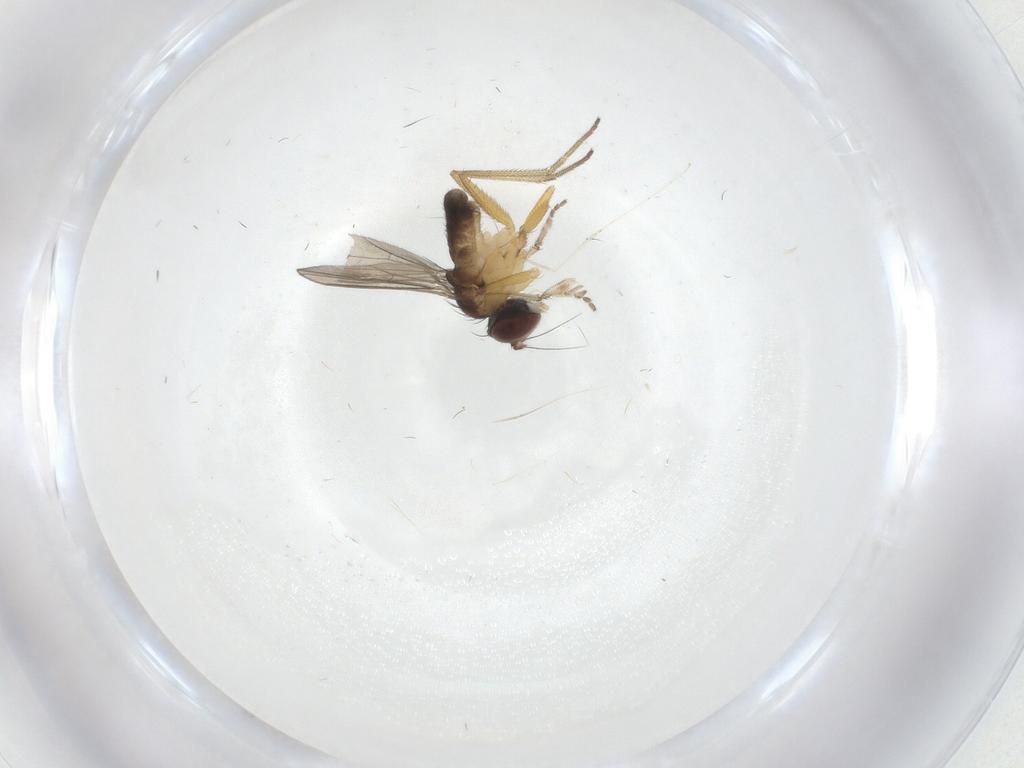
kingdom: Animalia
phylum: Arthropoda
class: Insecta
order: Diptera
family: Dolichopodidae
